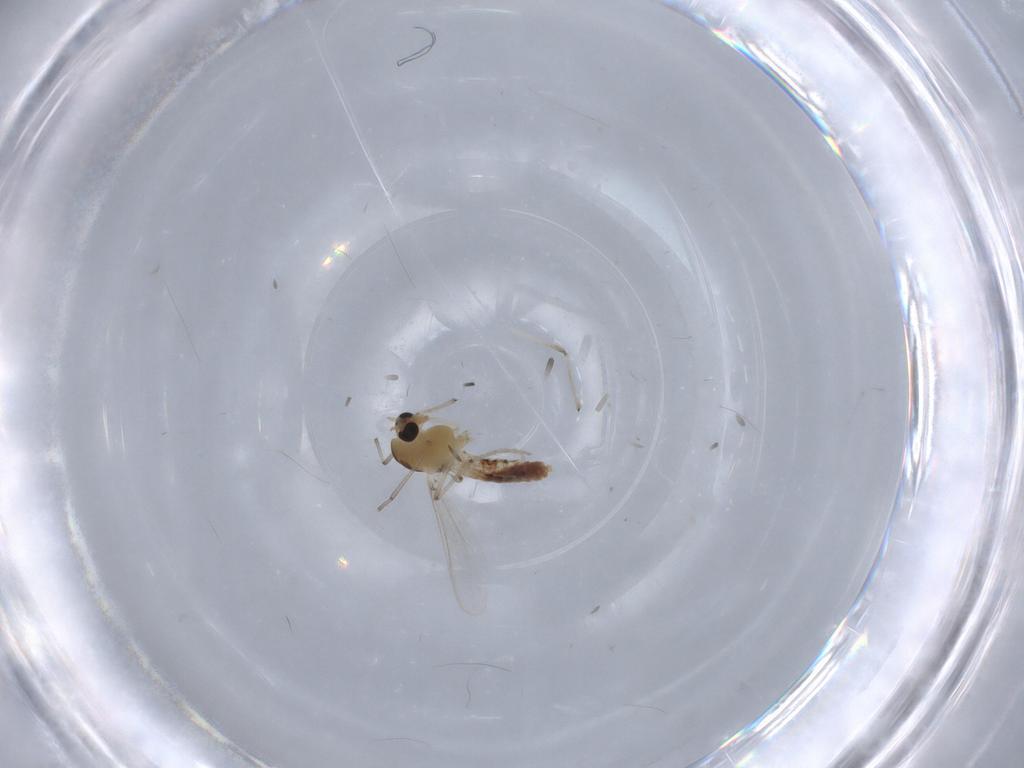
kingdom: Animalia
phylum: Arthropoda
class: Insecta
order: Diptera
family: Chironomidae
